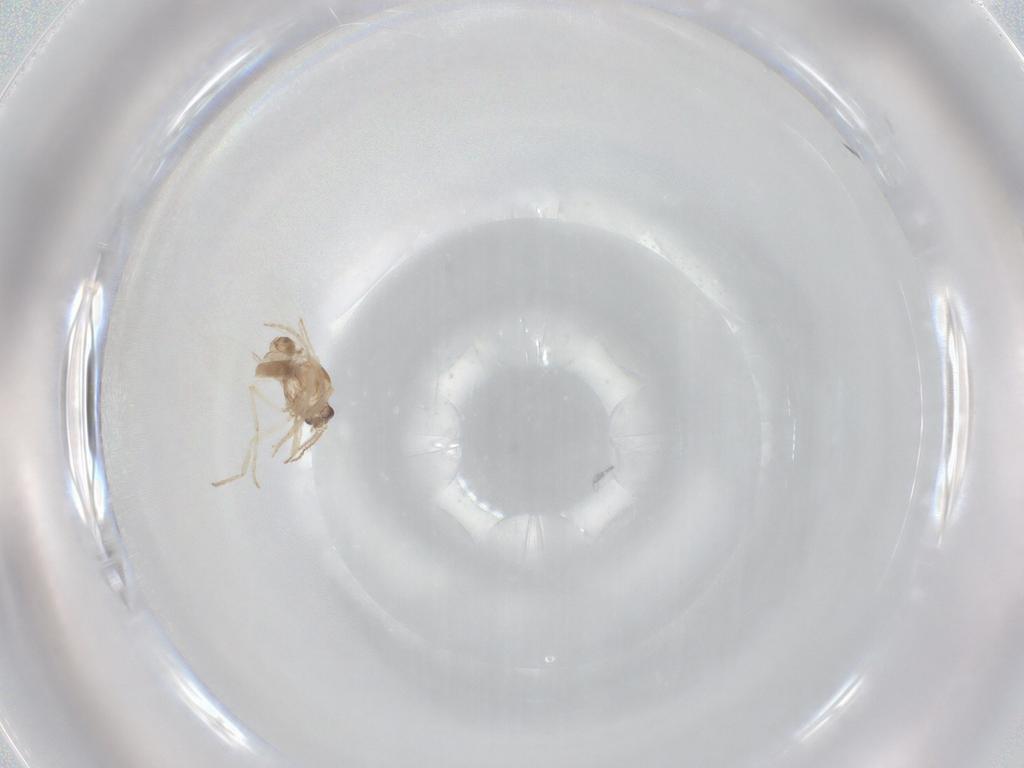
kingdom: Animalia
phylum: Arthropoda
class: Insecta
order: Diptera
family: Ceratopogonidae
